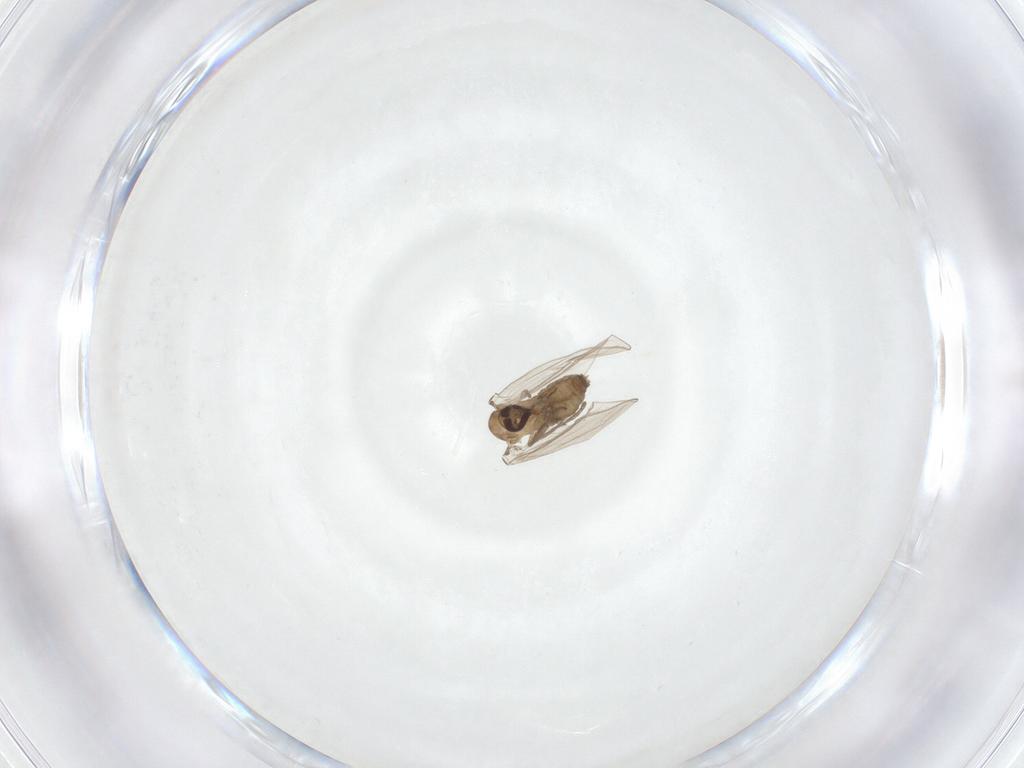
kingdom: Animalia
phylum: Arthropoda
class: Insecta
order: Diptera
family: Psychodidae
